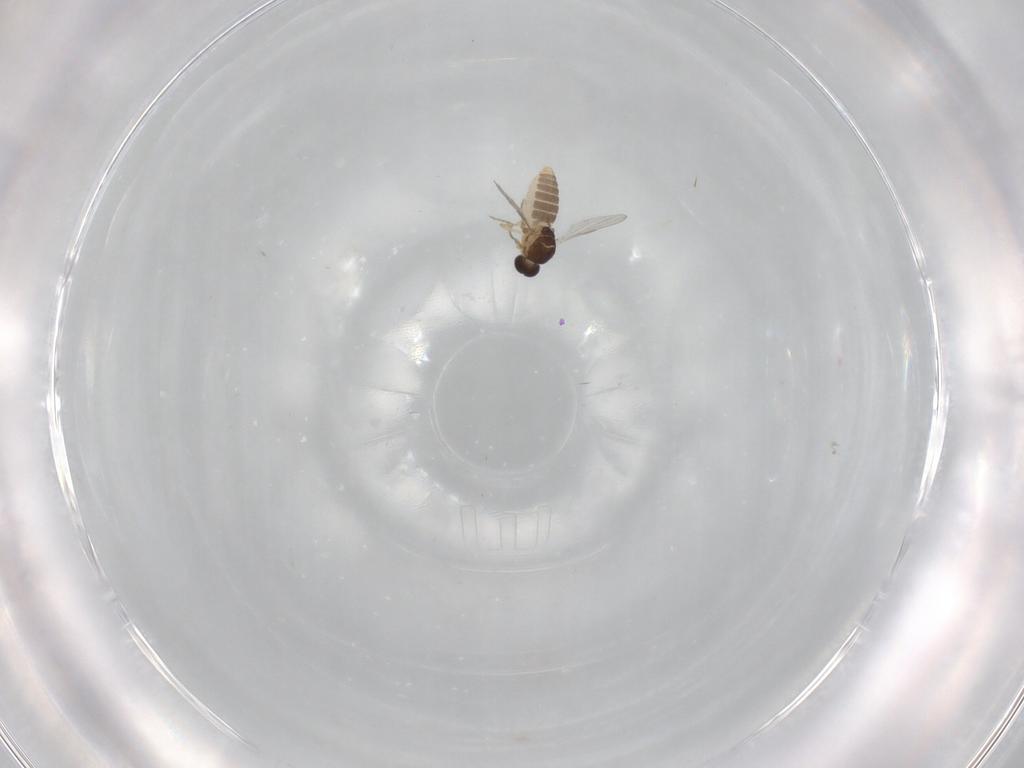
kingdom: Animalia
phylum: Arthropoda
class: Insecta
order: Diptera
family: Ceratopogonidae
